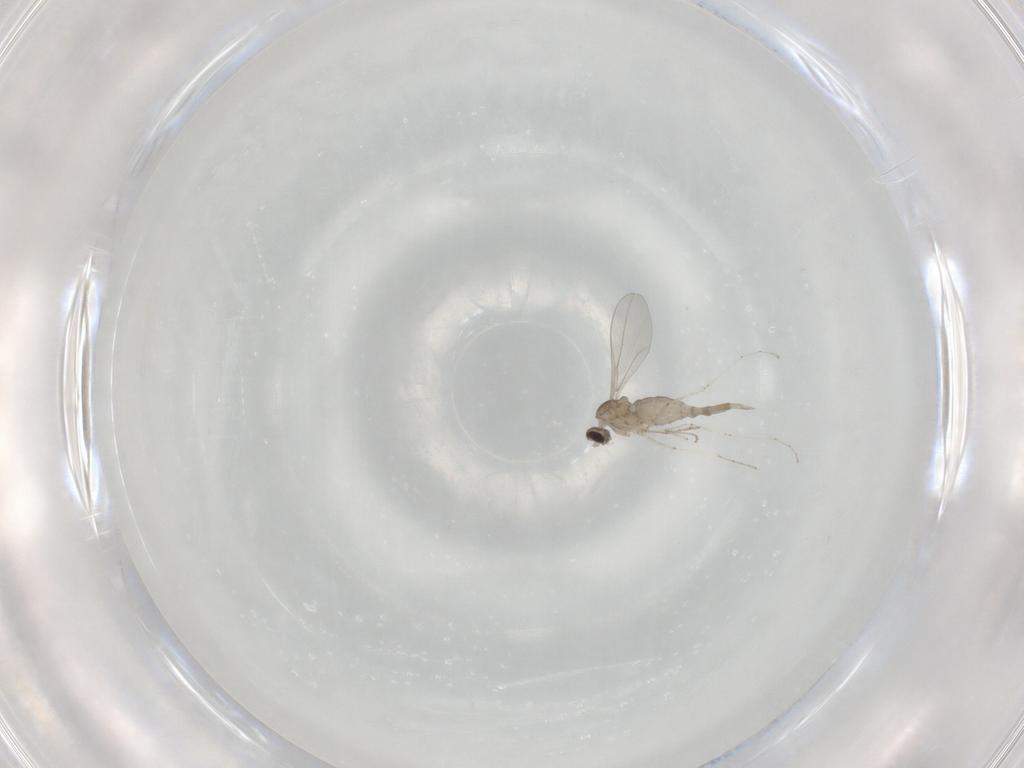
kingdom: Animalia
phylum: Arthropoda
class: Insecta
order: Diptera
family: Cecidomyiidae
